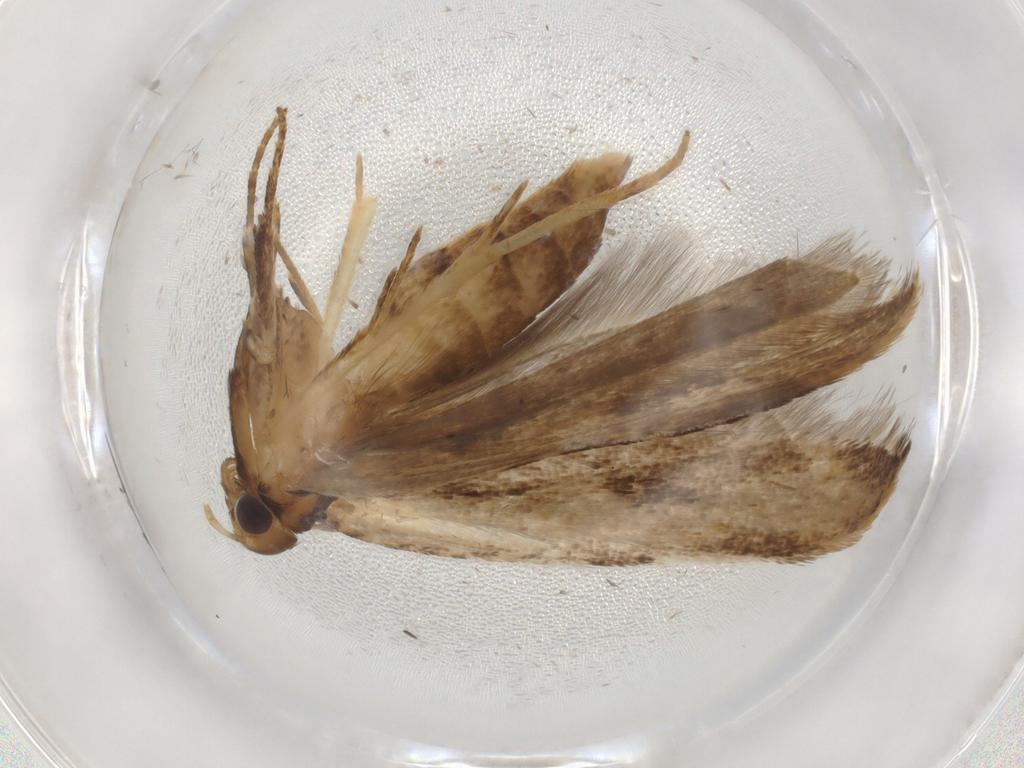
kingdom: Animalia
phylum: Arthropoda
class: Insecta
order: Lepidoptera
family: Gelechiidae
